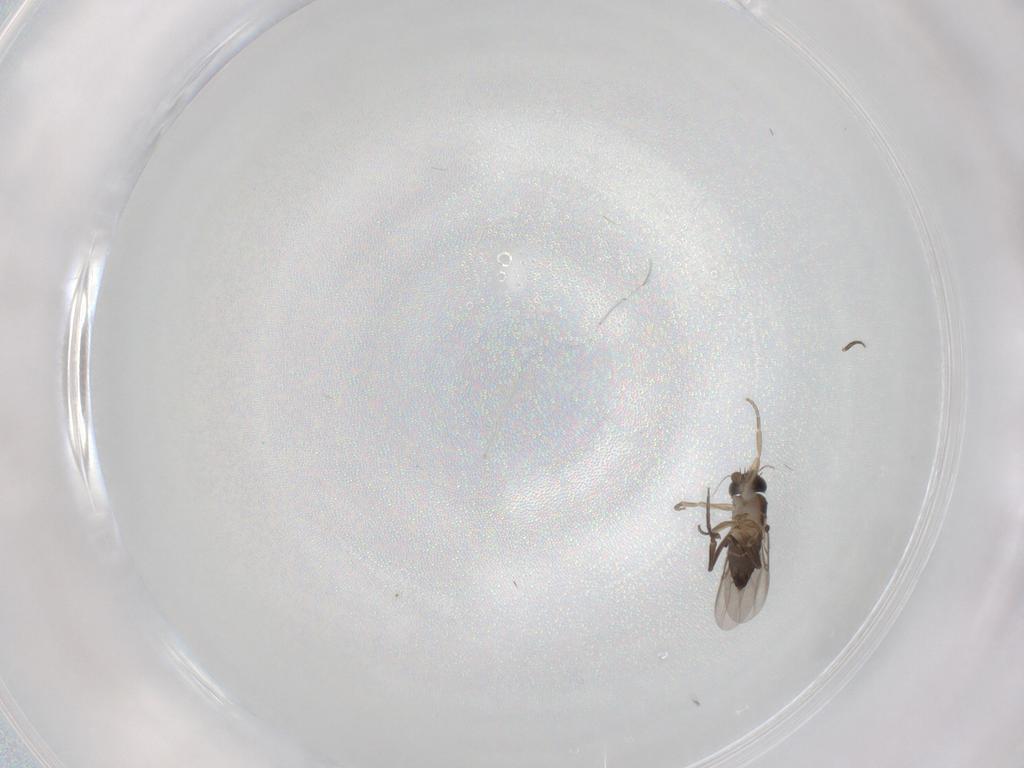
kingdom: Animalia
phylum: Arthropoda
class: Insecta
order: Diptera
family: Phoridae
